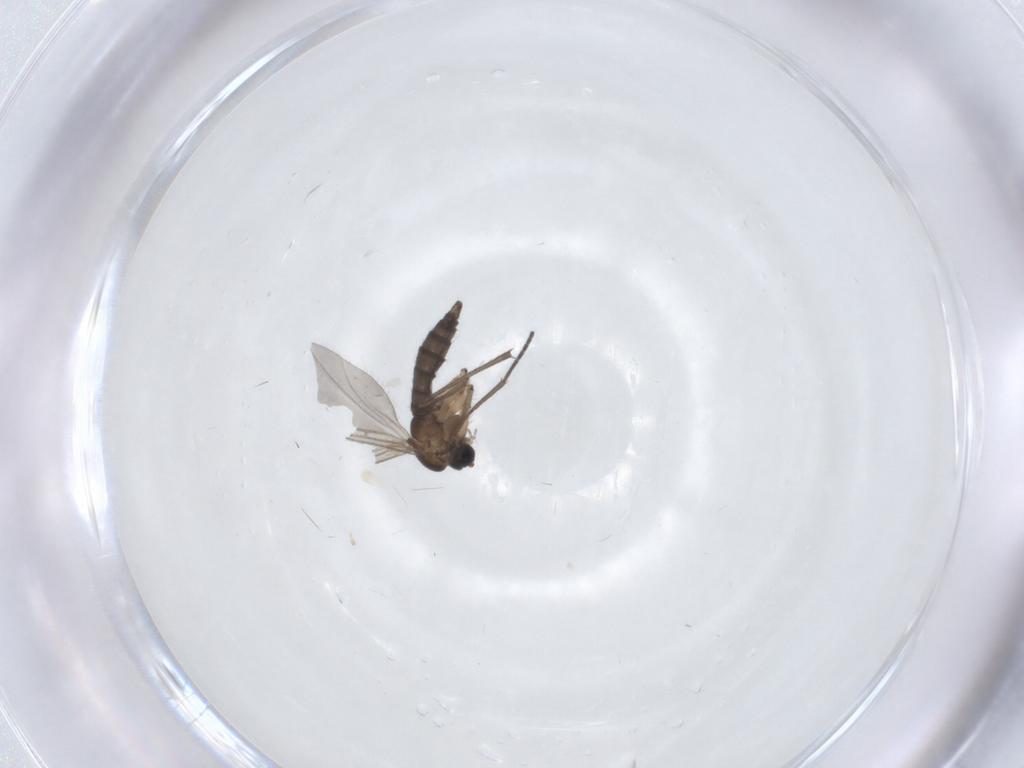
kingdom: Animalia
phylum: Arthropoda
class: Insecta
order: Diptera
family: Sciaridae
